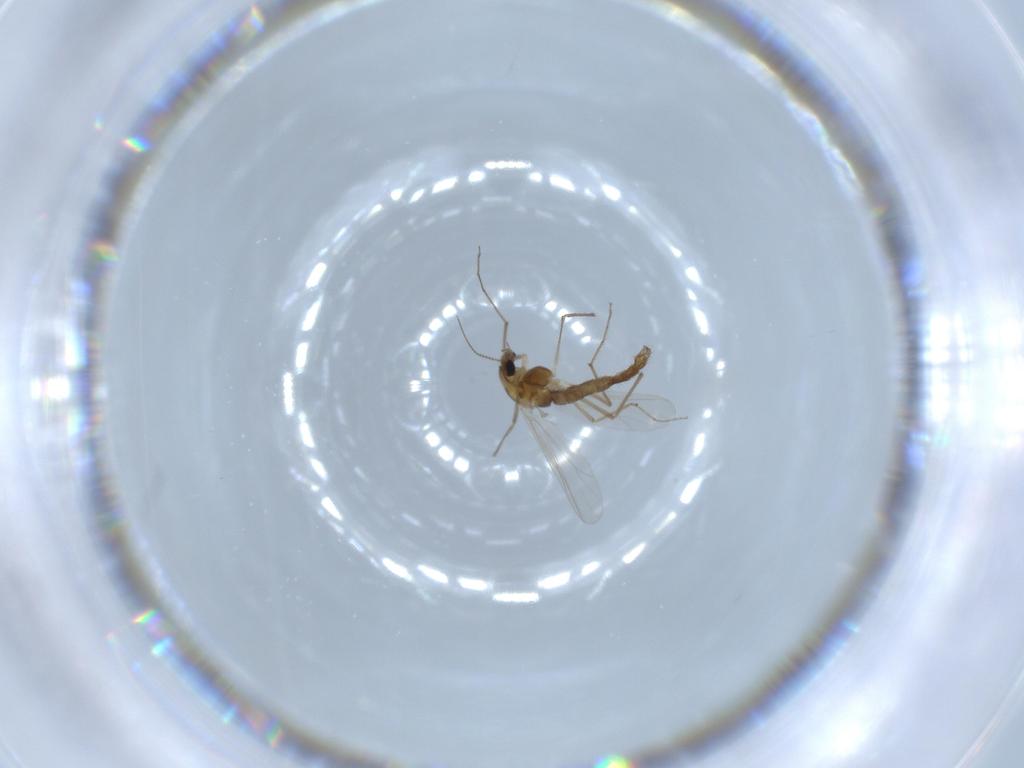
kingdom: Animalia
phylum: Arthropoda
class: Insecta
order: Diptera
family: Chironomidae
